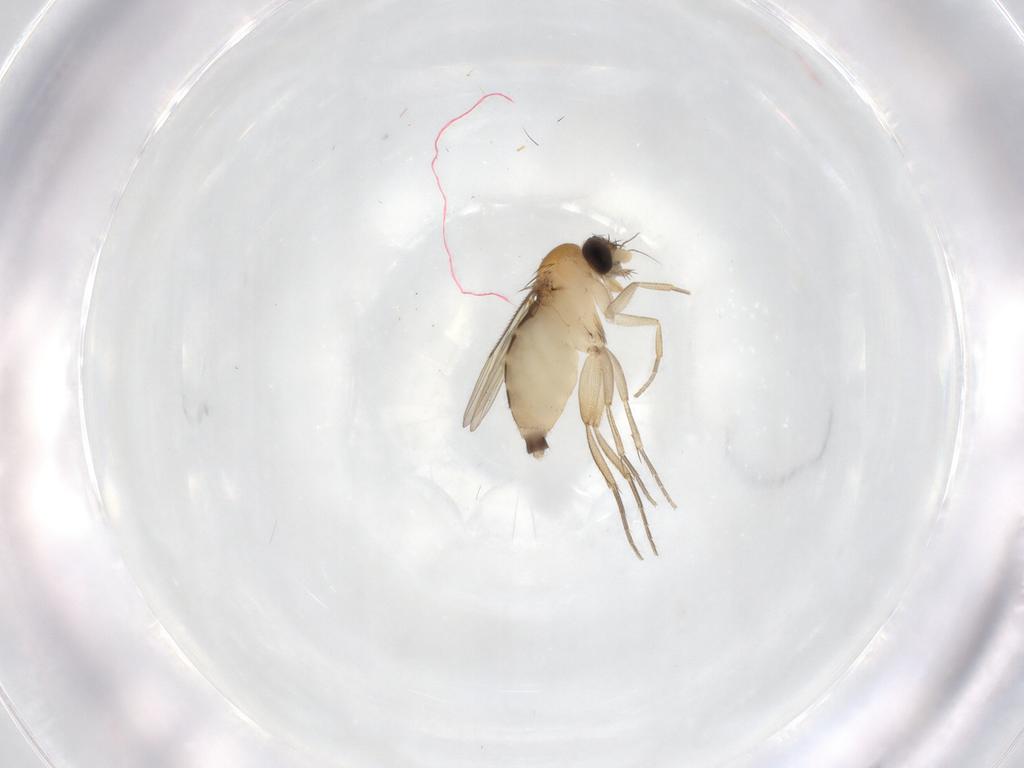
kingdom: Animalia
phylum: Arthropoda
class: Insecta
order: Diptera
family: Phoridae
